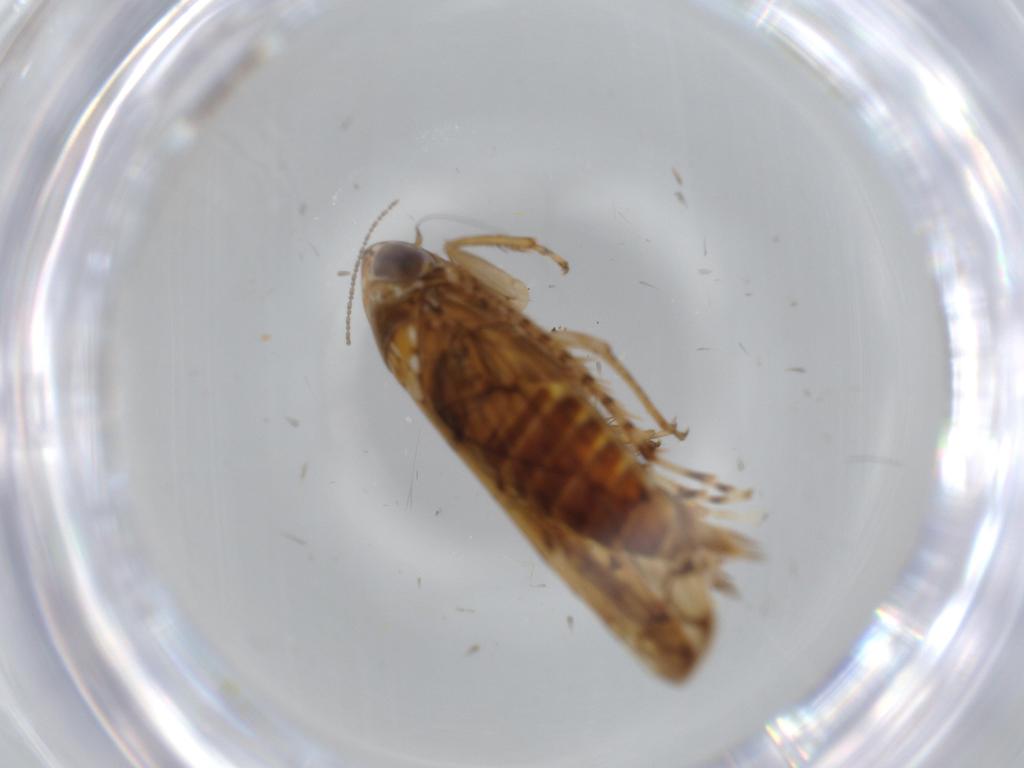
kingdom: Animalia
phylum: Arthropoda
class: Insecta
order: Hemiptera
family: Cicadellidae
